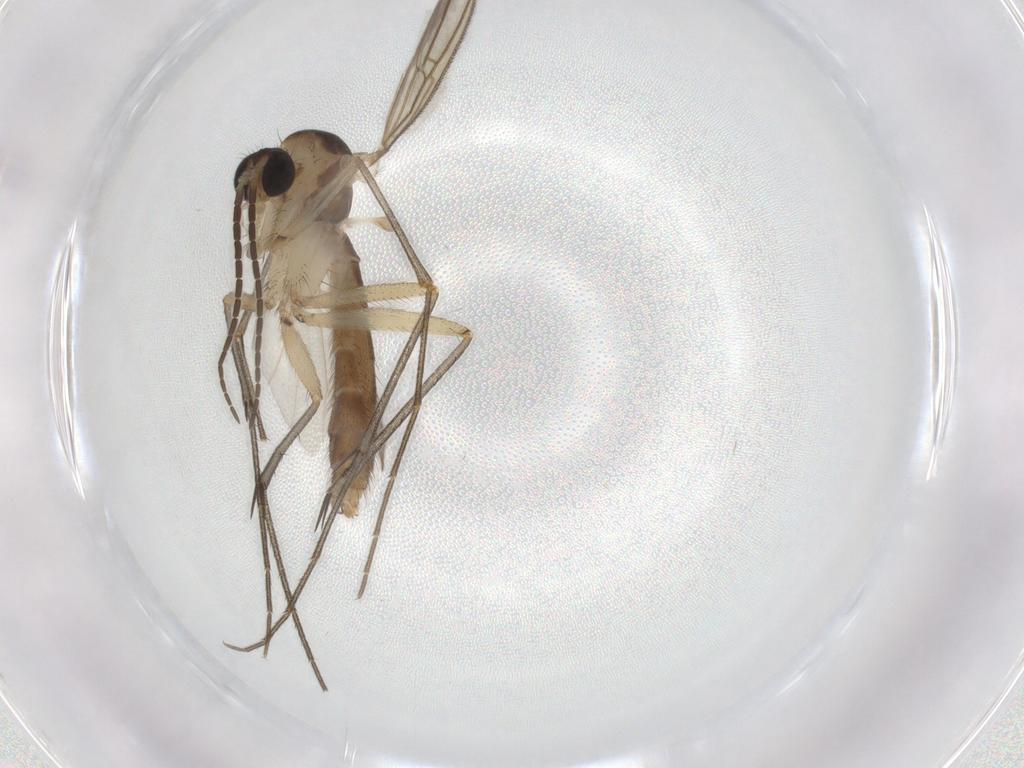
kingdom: Animalia
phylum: Arthropoda
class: Insecta
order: Diptera
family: Mycetophilidae
